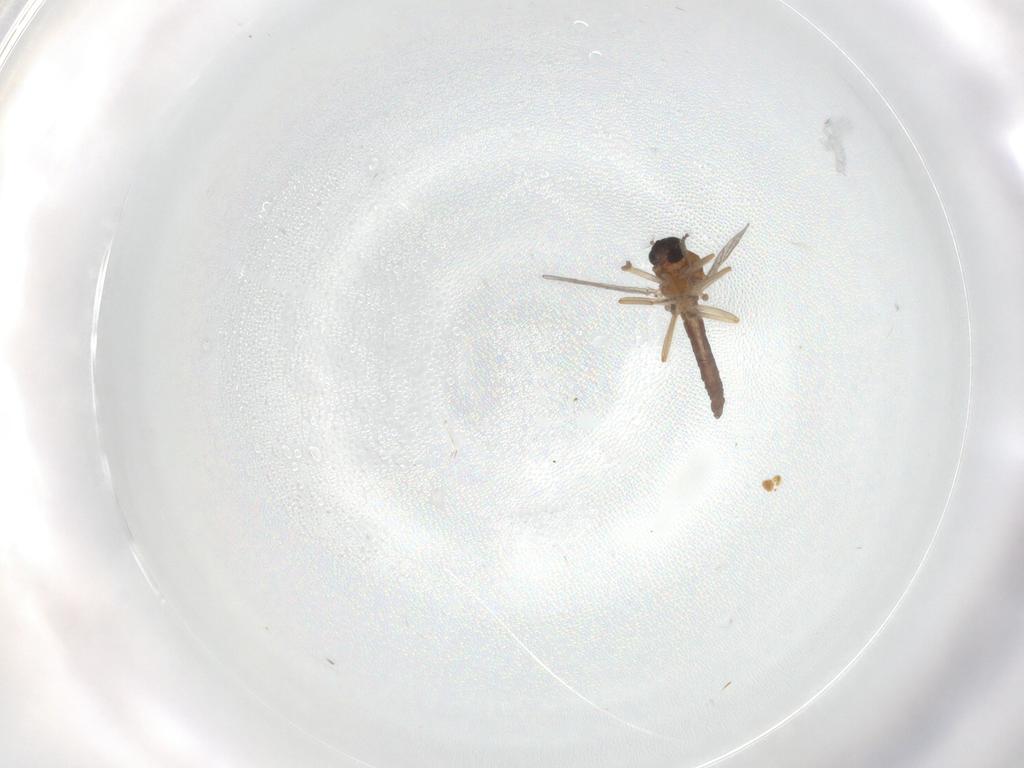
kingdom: Animalia
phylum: Arthropoda
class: Insecta
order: Diptera
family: Ceratopogonidae
